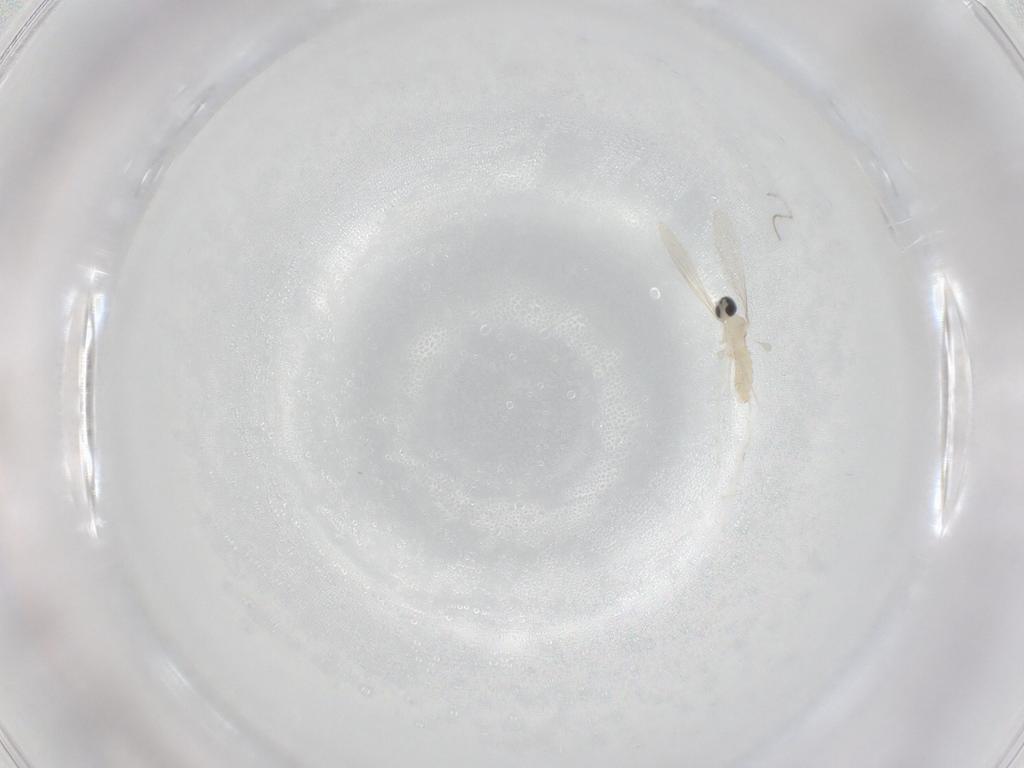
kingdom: Animalia
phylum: Arthropoda
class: Insecta
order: Diptera
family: Cecidomyiidae
